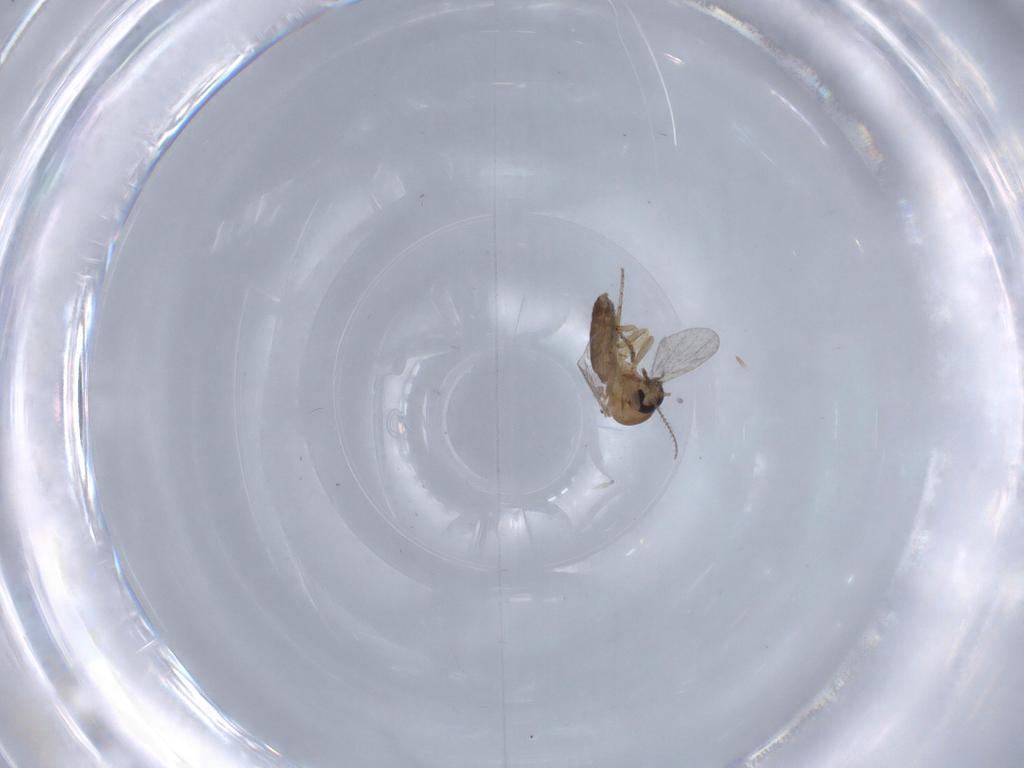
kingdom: Animalia
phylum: Arthropoda
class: Insecta
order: Diptera
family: Ceratopogonidae
